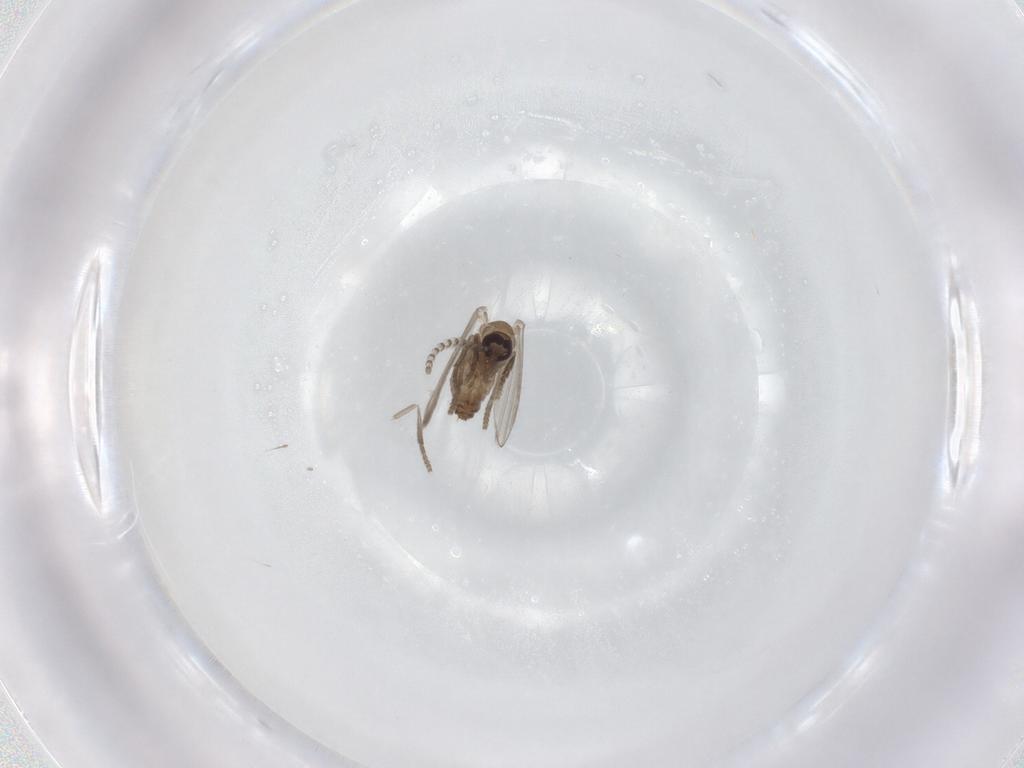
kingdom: Animalia
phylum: Arthropoda
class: Insecta
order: Diptera
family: Psychodidae
